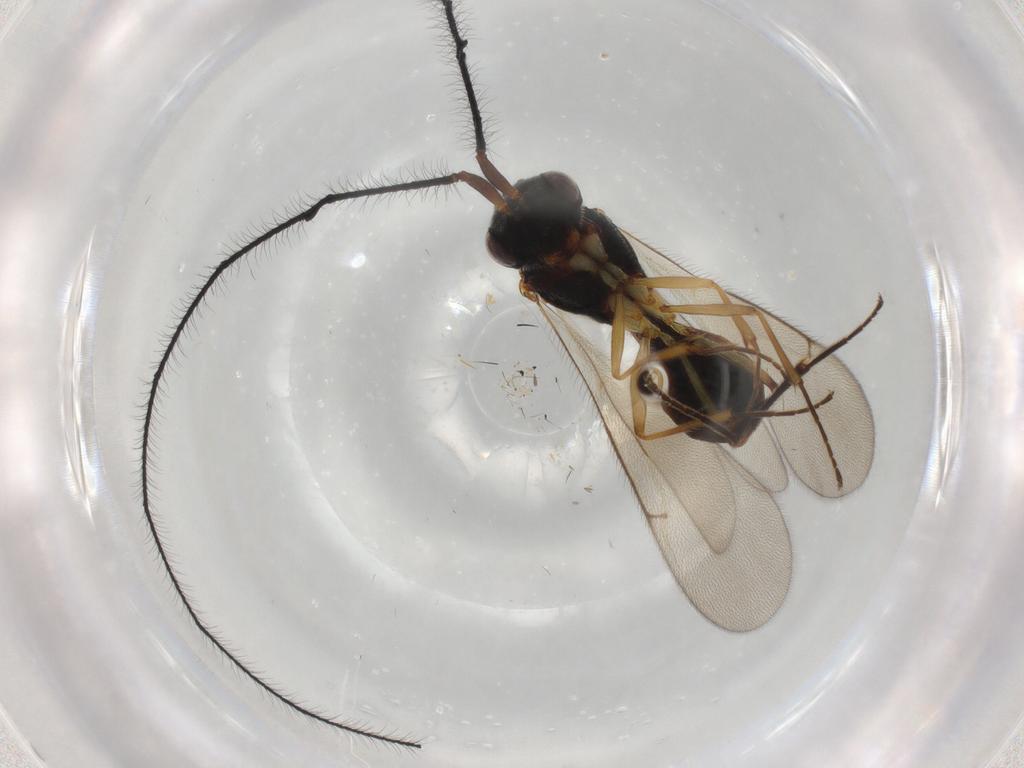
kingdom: Animalia
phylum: Arthropoda
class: Insecta
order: Hymenoptera
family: Scelionidae
